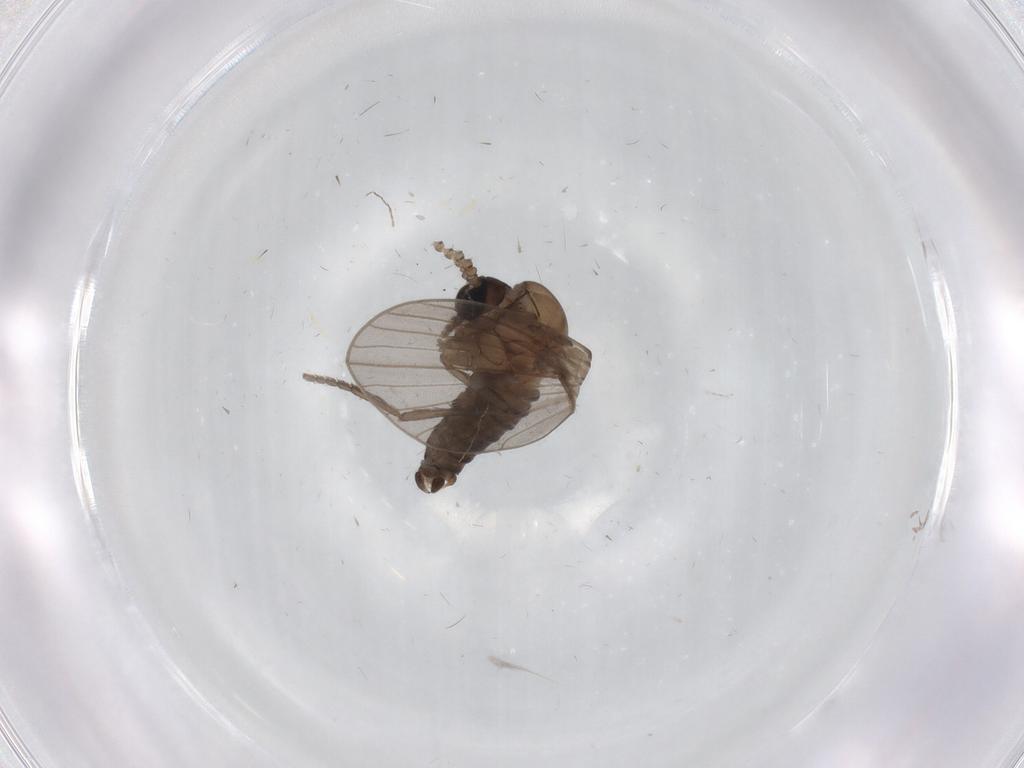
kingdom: Animalia
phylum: Arthropoda
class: Insecta
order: Diptera
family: Psychodidae
